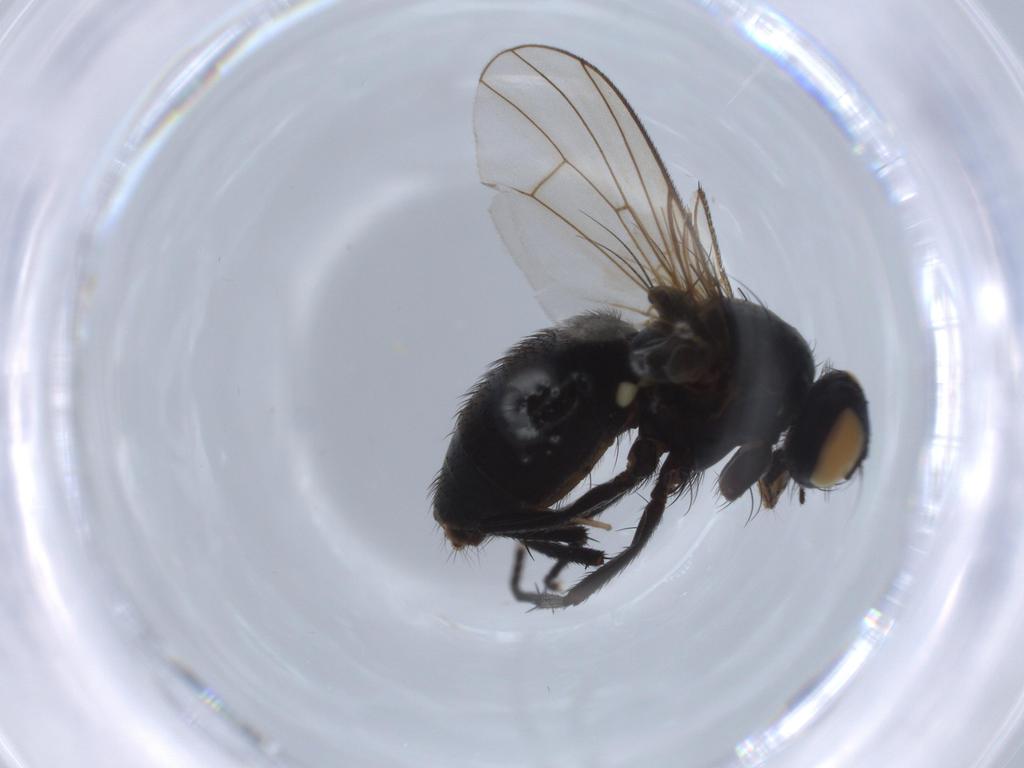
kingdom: Animalia
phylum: Arthropoda
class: Insecta
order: Diptera
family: Muscidae
